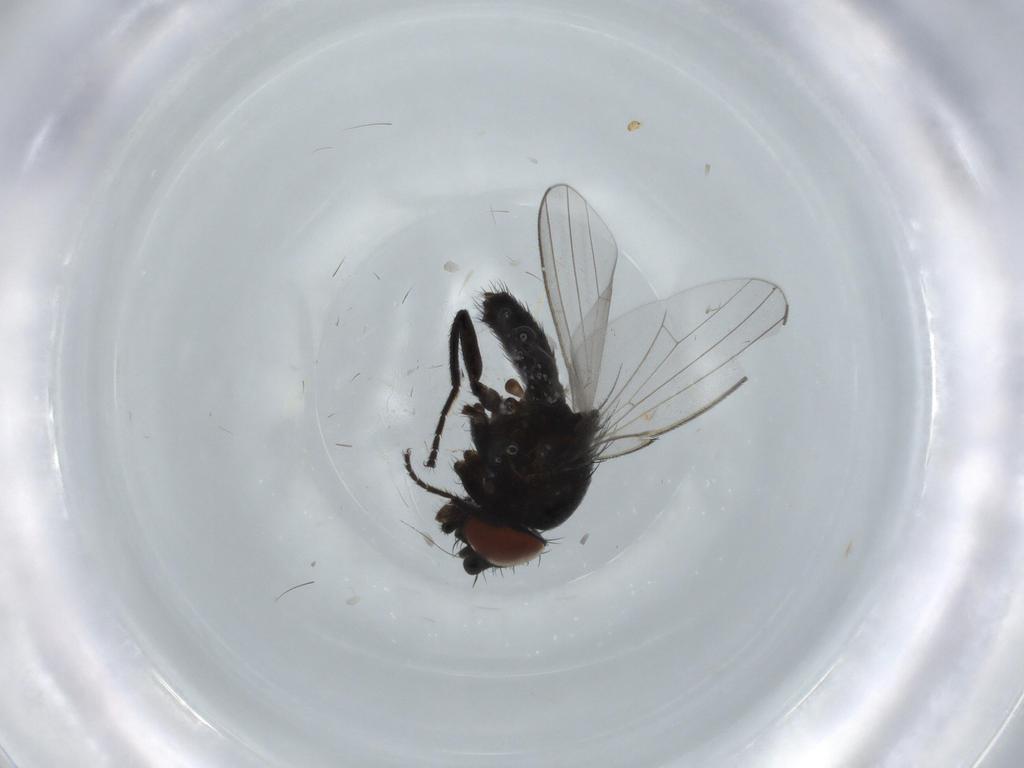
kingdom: Animalia
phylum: Arthropoda
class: Insecta
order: Diptera
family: Milichiidae
